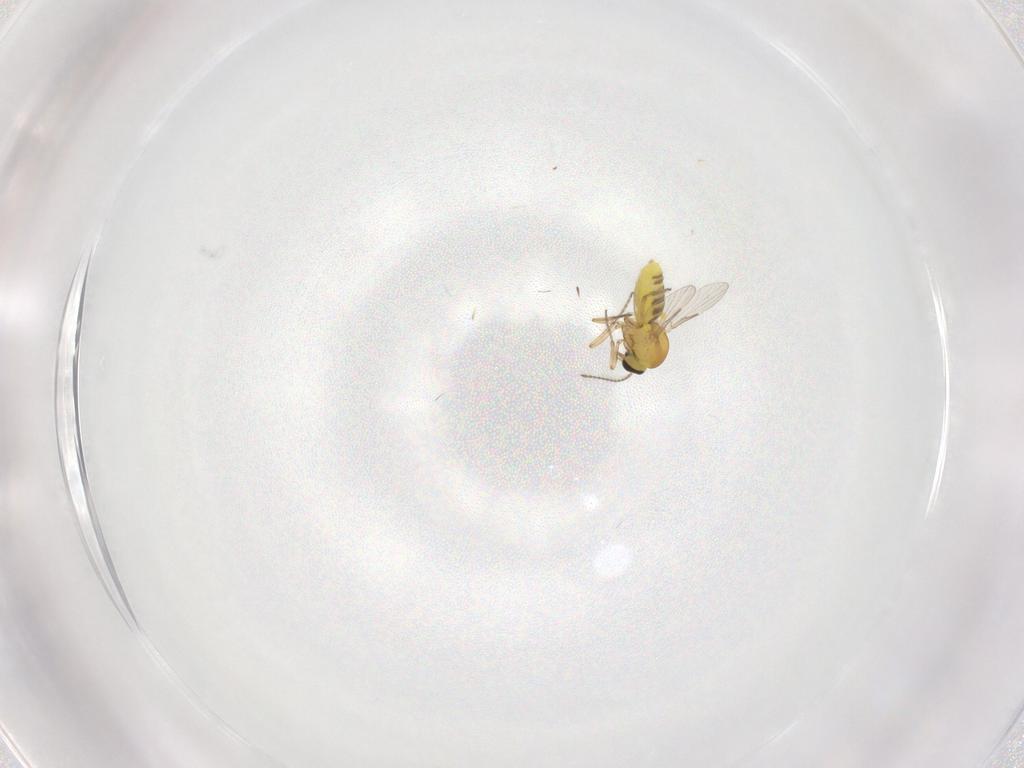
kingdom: Animalia
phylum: Arthropoda
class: Insecta
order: Diptera
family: Ceratopogonidae
